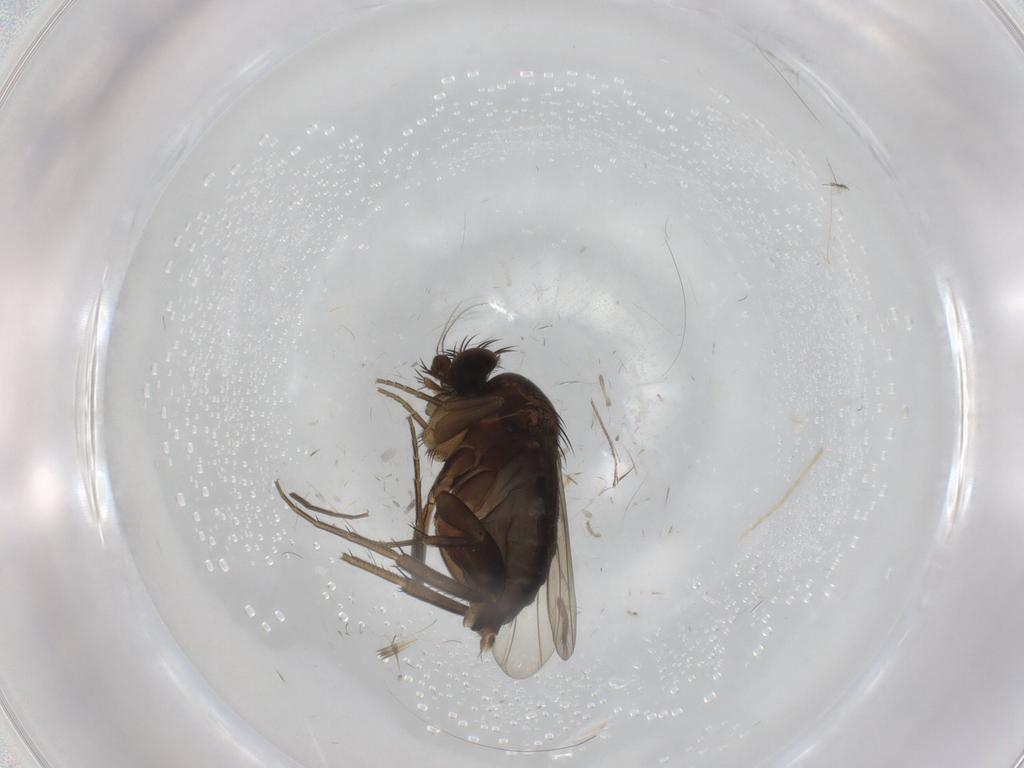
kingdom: Animalia
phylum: Arthropoda
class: Insecta
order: Diptera
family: Phoridae
